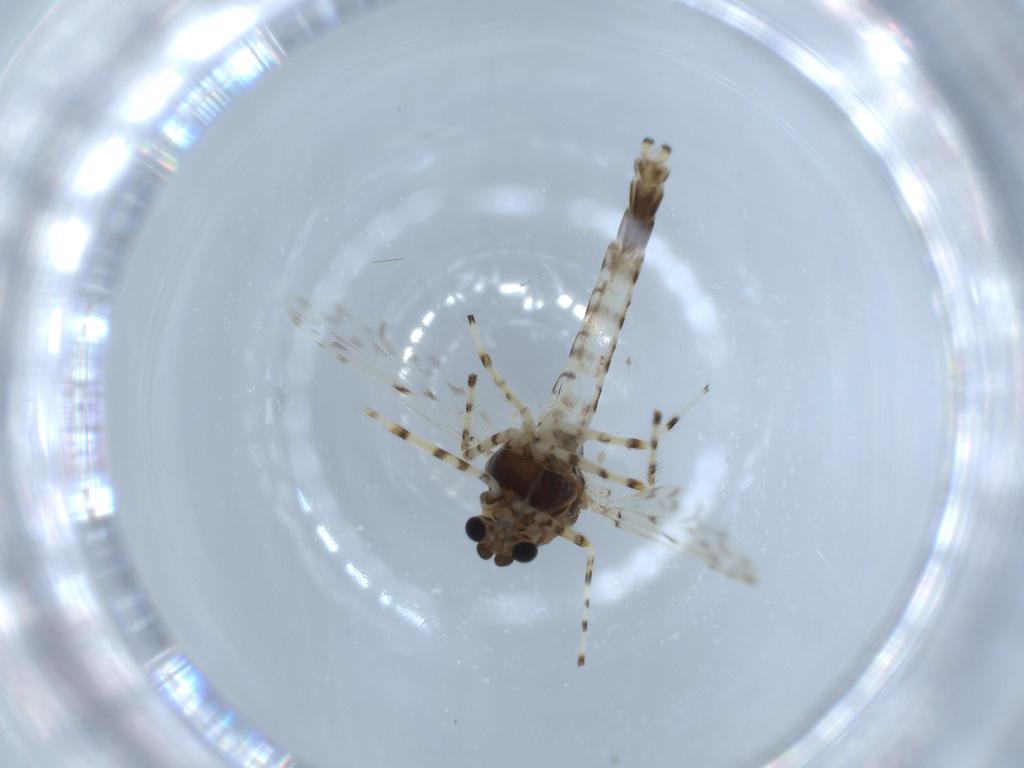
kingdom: Animalia
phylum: Arthropoda
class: Insecta
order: Diptera
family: Chironomidae
